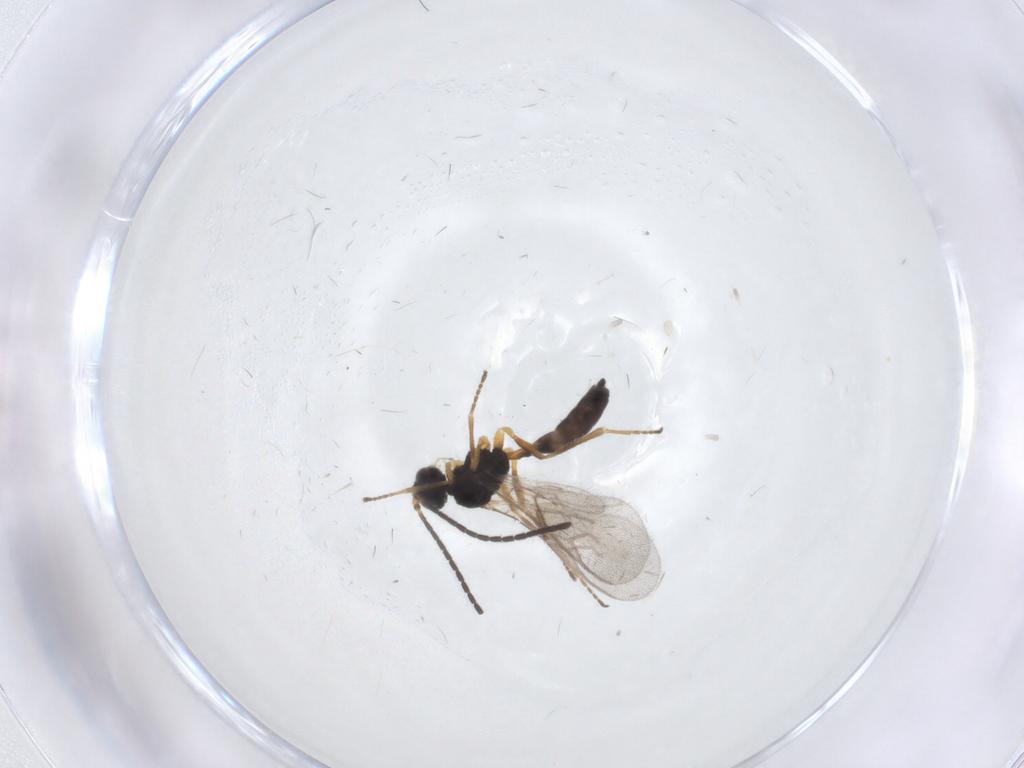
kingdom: Animalia
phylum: Arthropoda
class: Insecta
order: Hymenoptera
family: Braconidae
